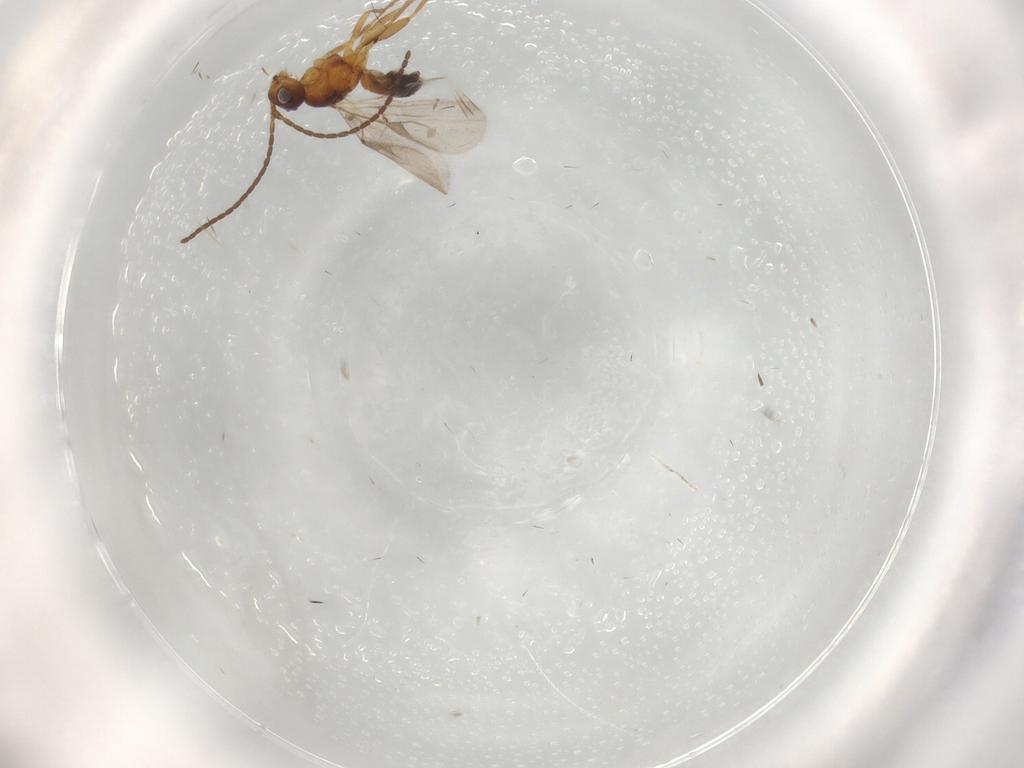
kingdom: Animalia
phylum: Arthropoda
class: Insecta
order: Hymenoptera
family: Braconidae
